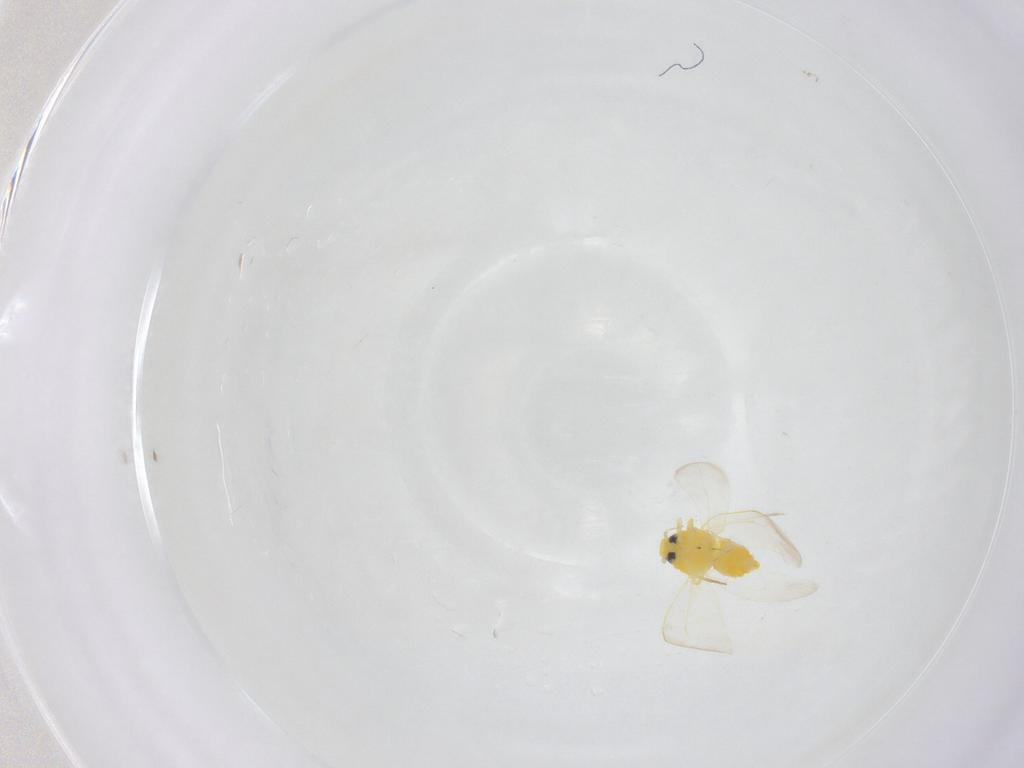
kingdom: Animalia
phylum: Arthropoda
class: Insecta
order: Hemiptera
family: Aleyrodidae
